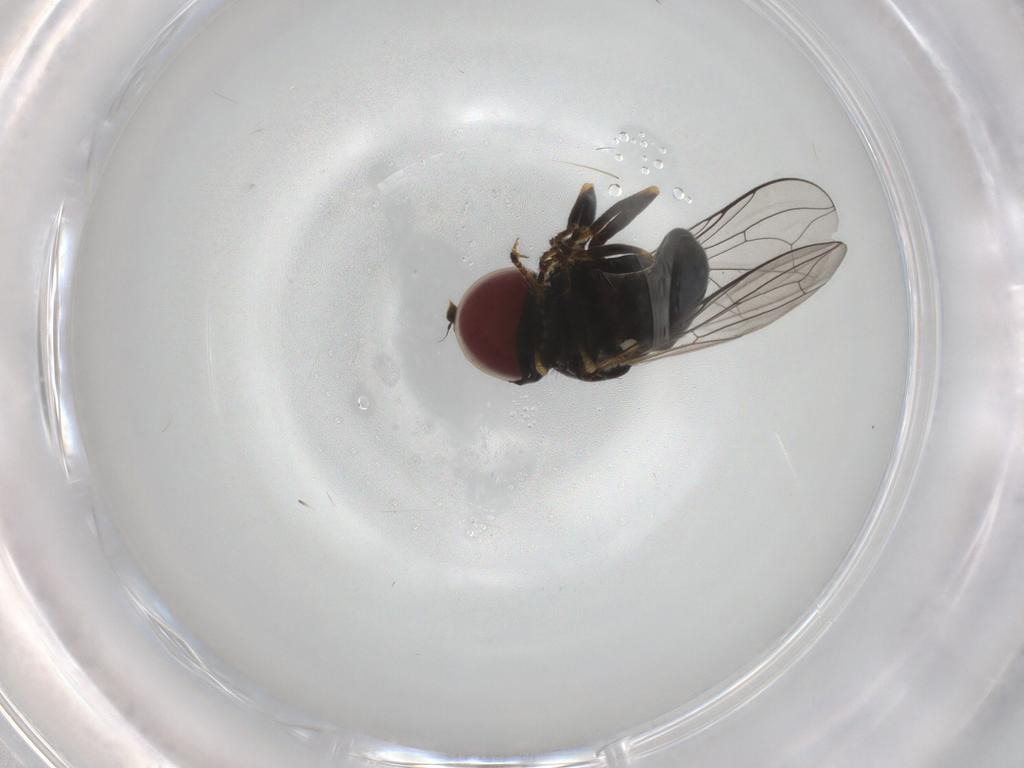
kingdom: Animalia
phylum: Arthropoda
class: Insecta
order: Diptera
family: Pipunculidae
